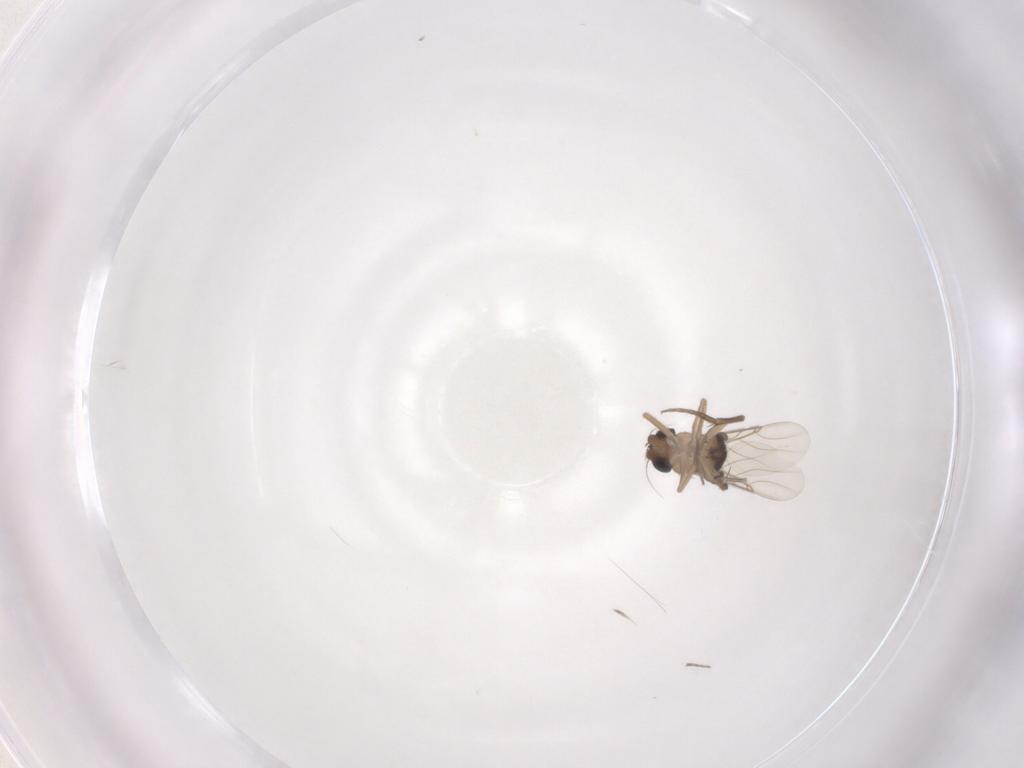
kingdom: Animalia
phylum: Arthropoda
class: Insecta
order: Diptera
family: Phoridae
